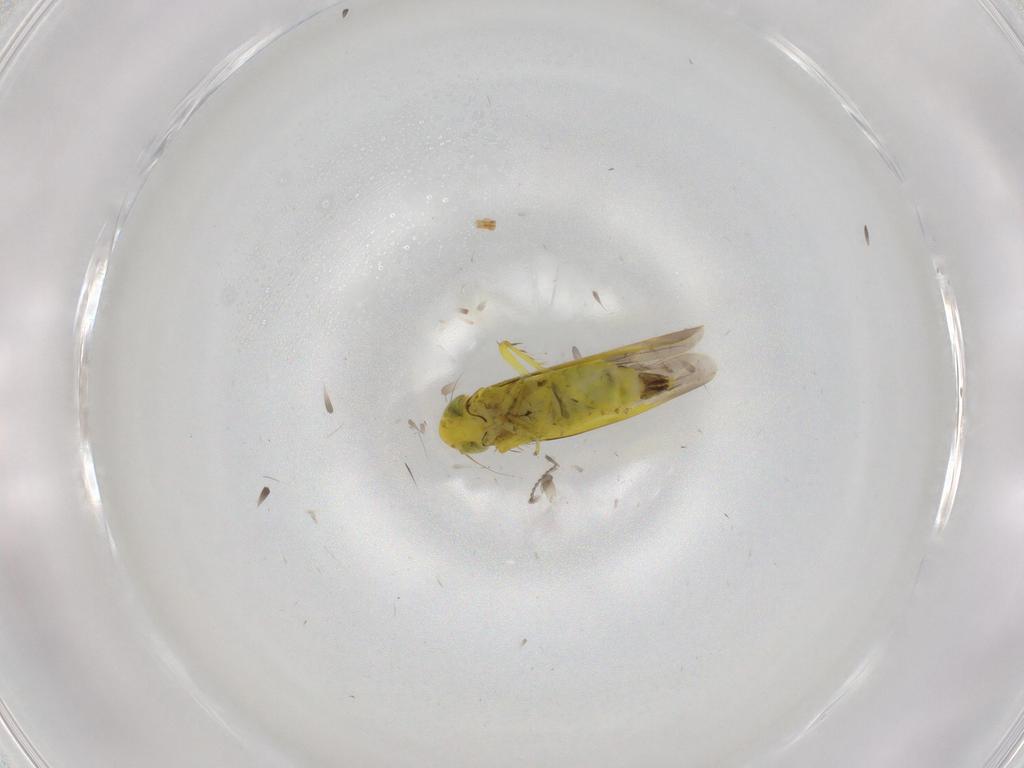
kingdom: Animalia
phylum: Arthropoda
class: Insecta
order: Hemiptera
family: Cicadellidae
